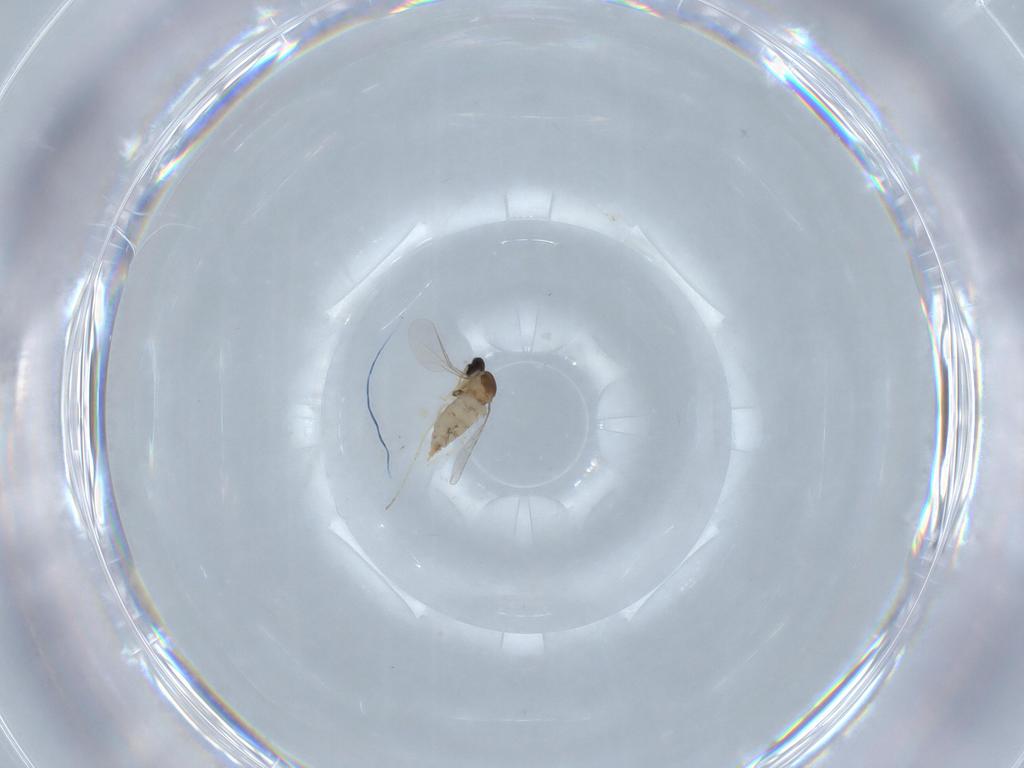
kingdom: Animalia
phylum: Arthropoda
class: Insecta
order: Diptera
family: Cecidomyiidae
